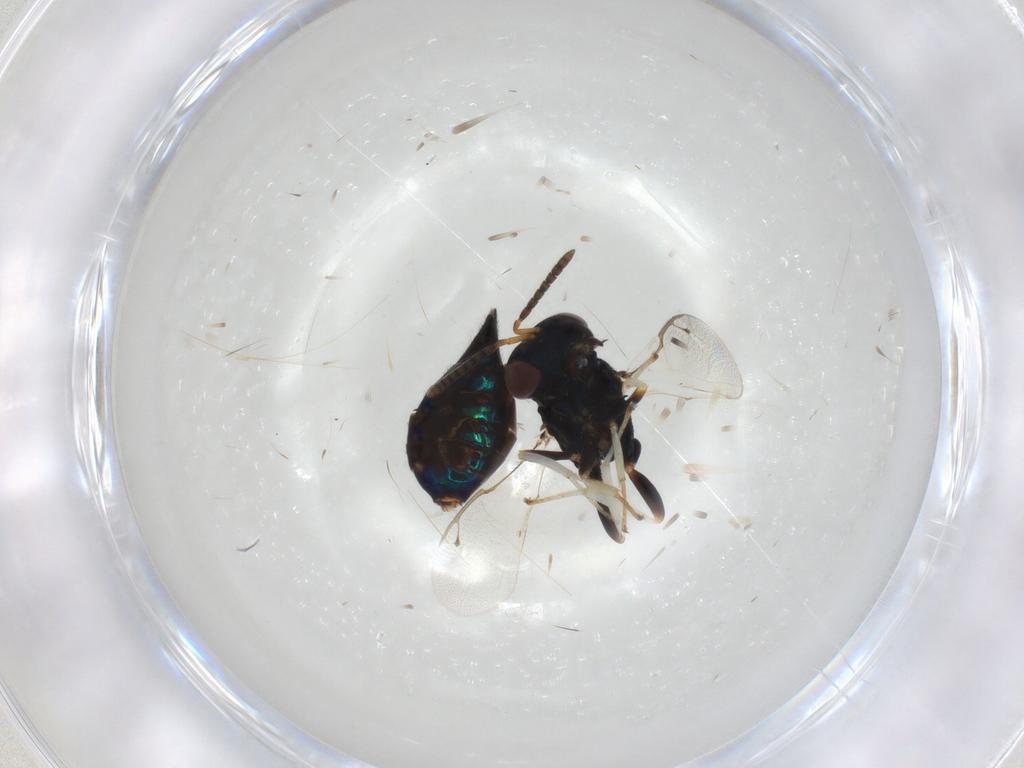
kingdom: Animalia
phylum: Arthropoda
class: Insecta
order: Hymenoptera
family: Pteromalidae
